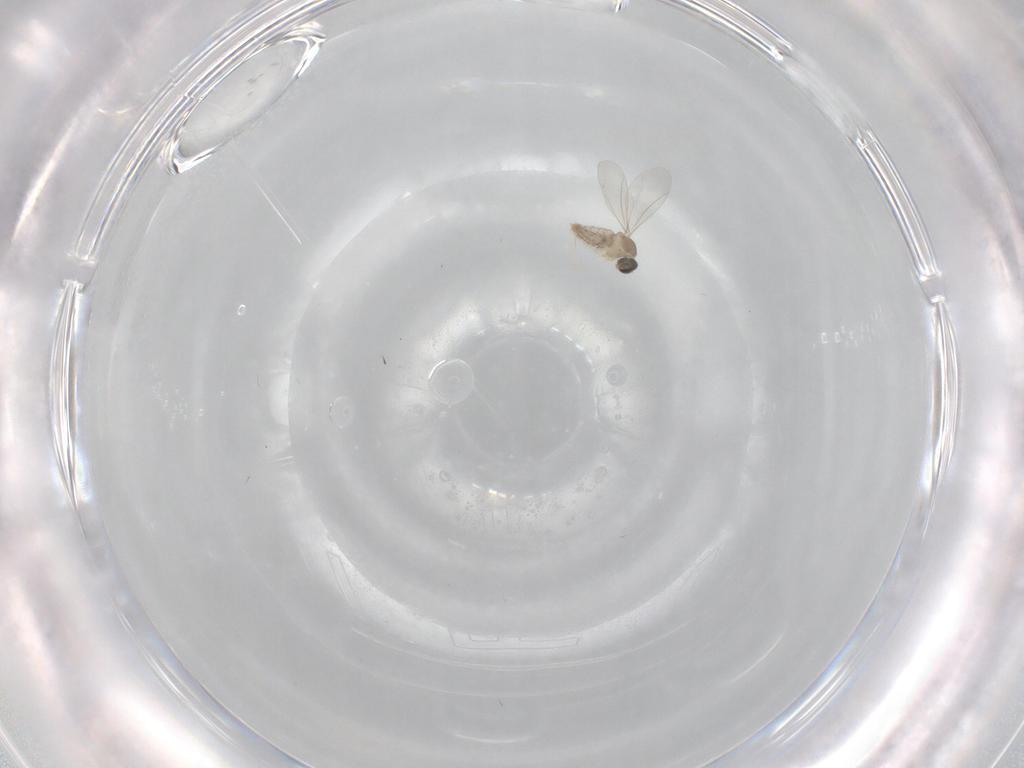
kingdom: Animalia
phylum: Arthropoda
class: Insecta
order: Diptera
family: Cecidomyiidae
